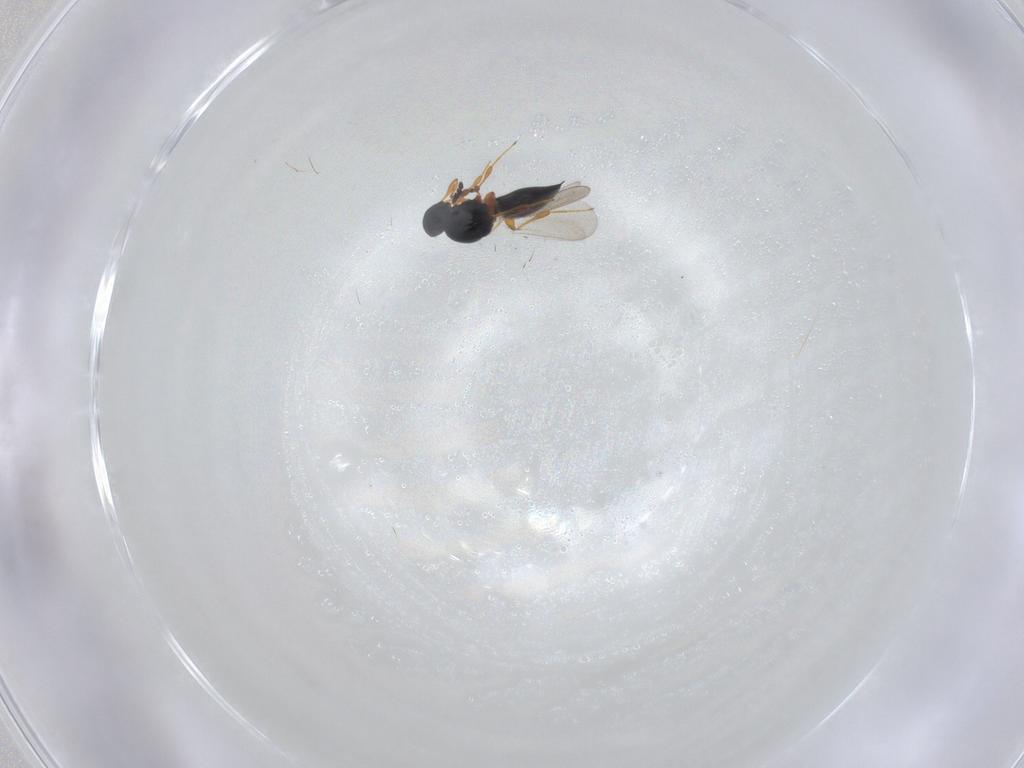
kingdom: Animalia
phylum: Arthropoda
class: Insecta
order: Hymenoptera
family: Platygastridae
